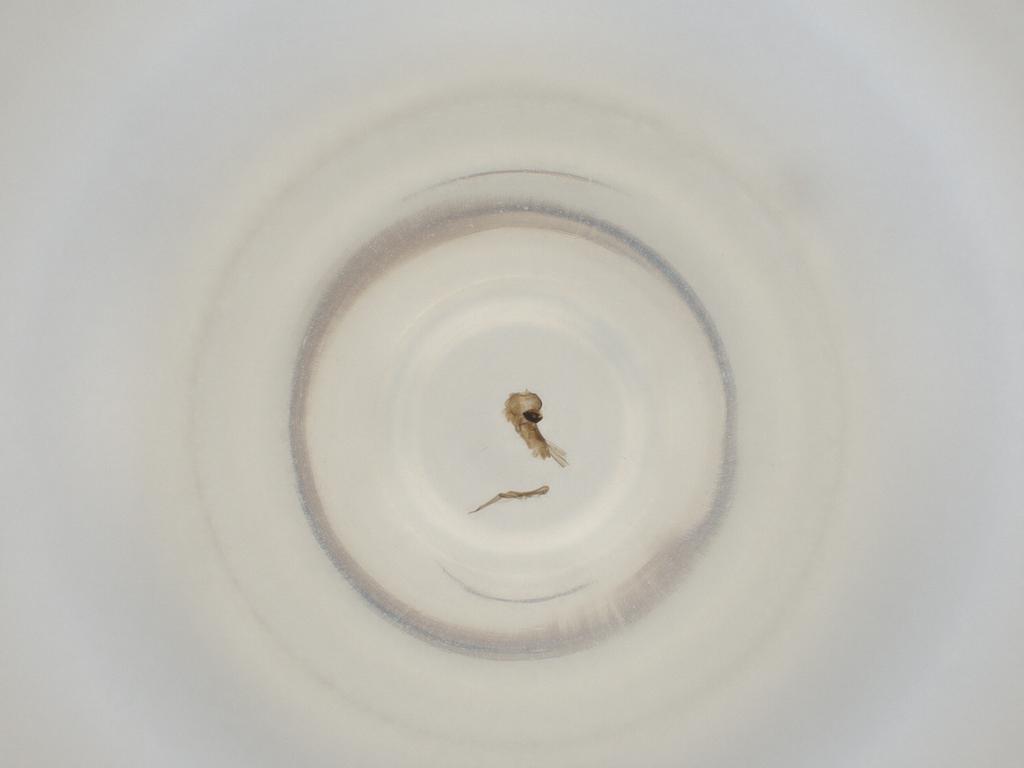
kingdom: Animalia
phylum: Arthropoda
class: Insecta
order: Diptera
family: Cecidomyiidae
